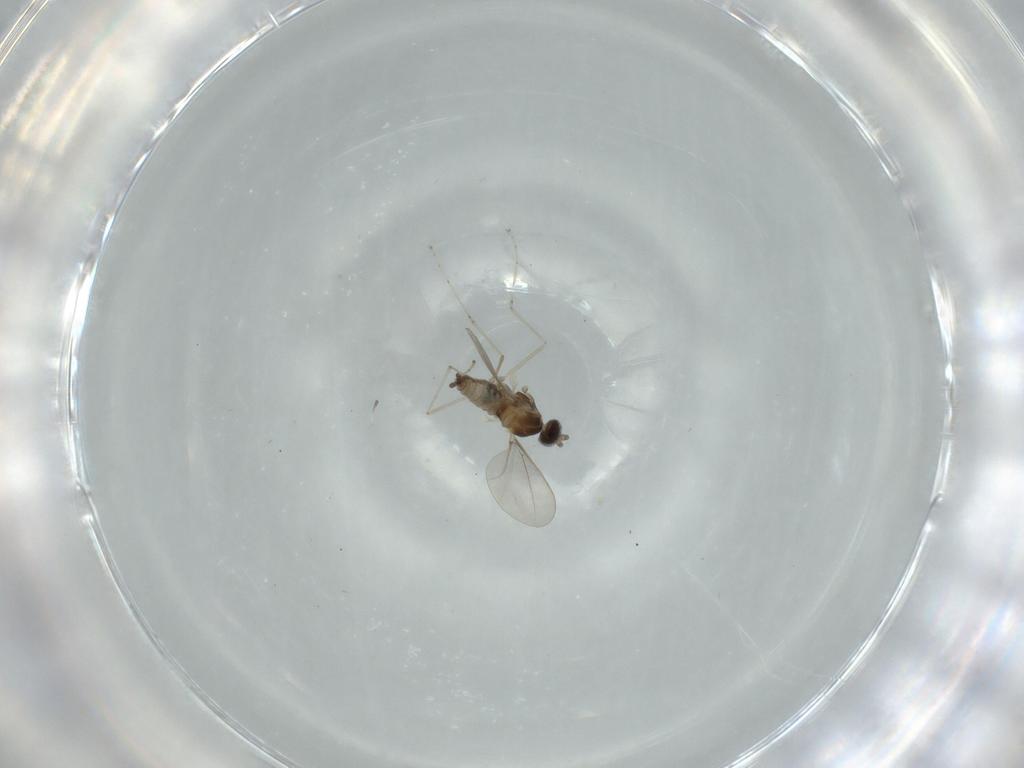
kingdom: Animalia
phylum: Arthropoda
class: Insecta
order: Diptera
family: Cecidomyiidae
